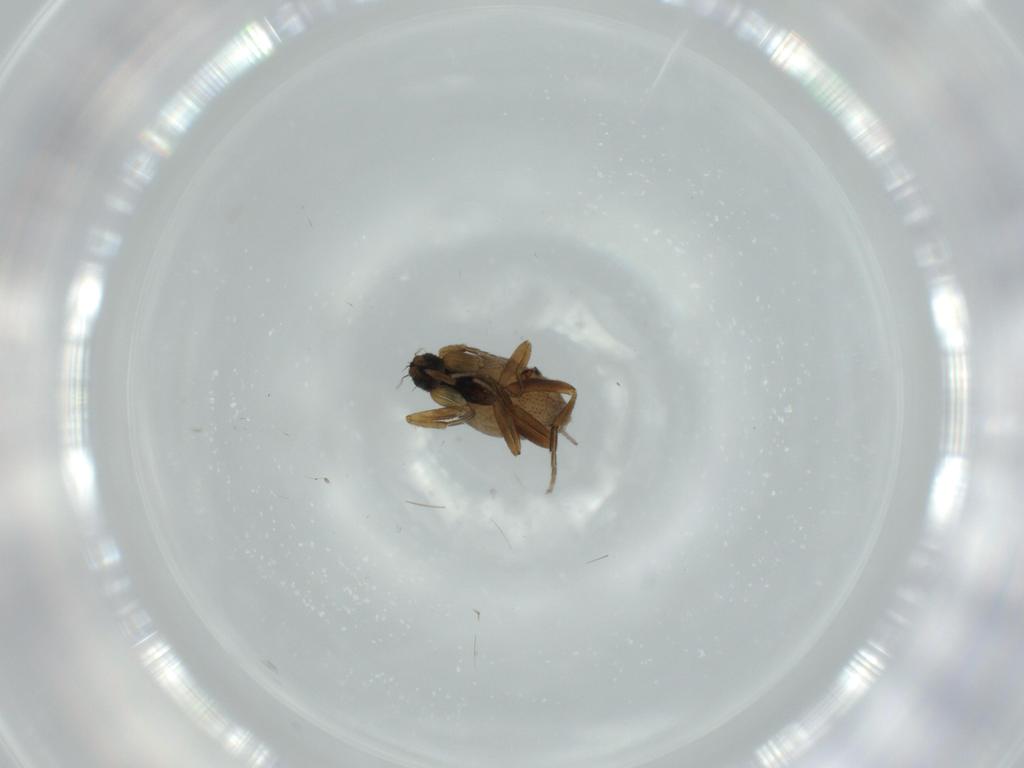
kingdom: Animalia
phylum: Arthropoda
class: Insecta
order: Diptera
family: Phoridae
